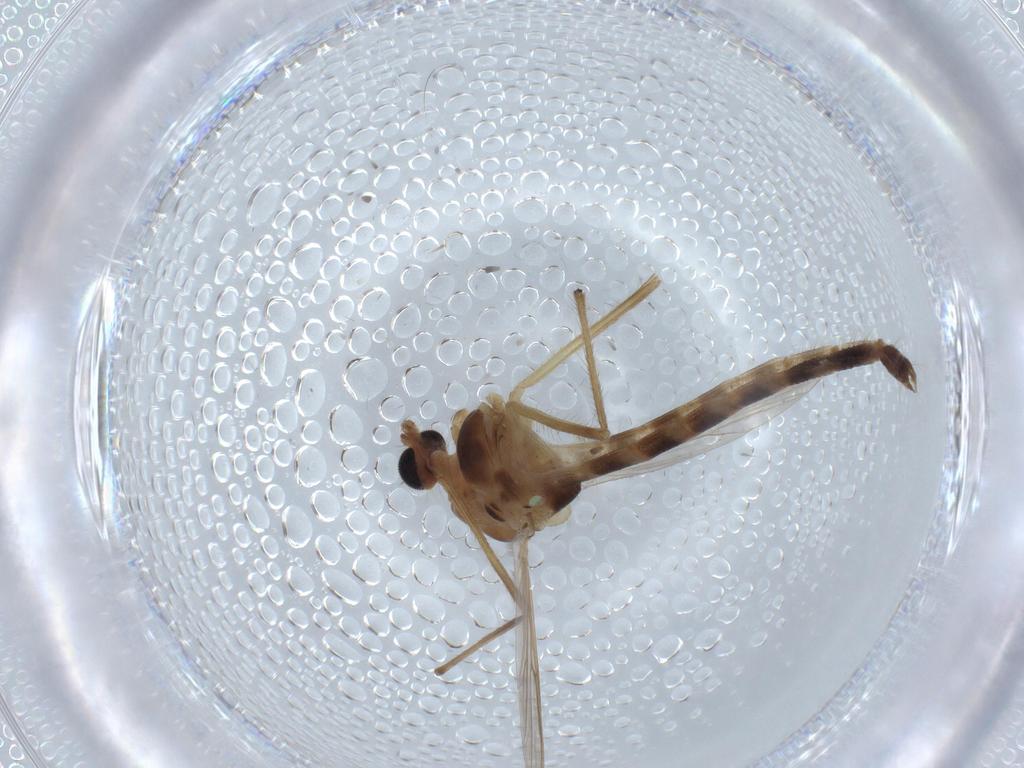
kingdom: Animalia
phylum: Arthropoda
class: Insecta
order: Diptera
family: Chironomidae
